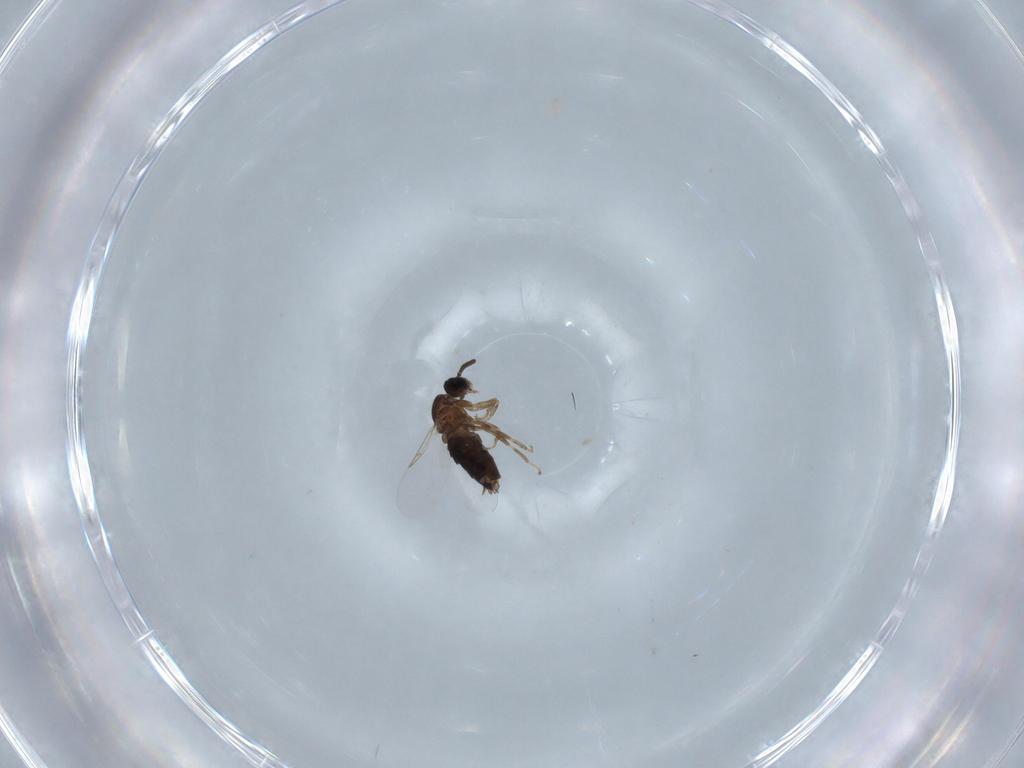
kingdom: Animalia
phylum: Arthropoda
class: Insecta
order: Diptera
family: Scatopsidae
